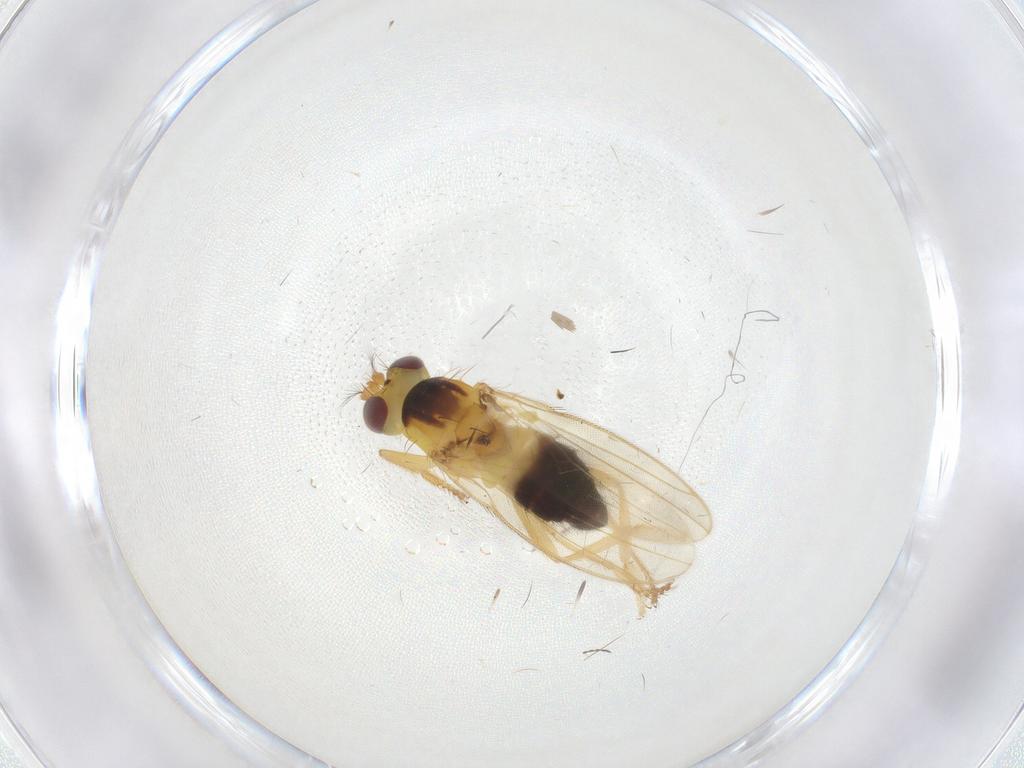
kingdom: Animalia
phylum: Arthropoda
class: Insecta
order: Diptera
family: Periscelididae
